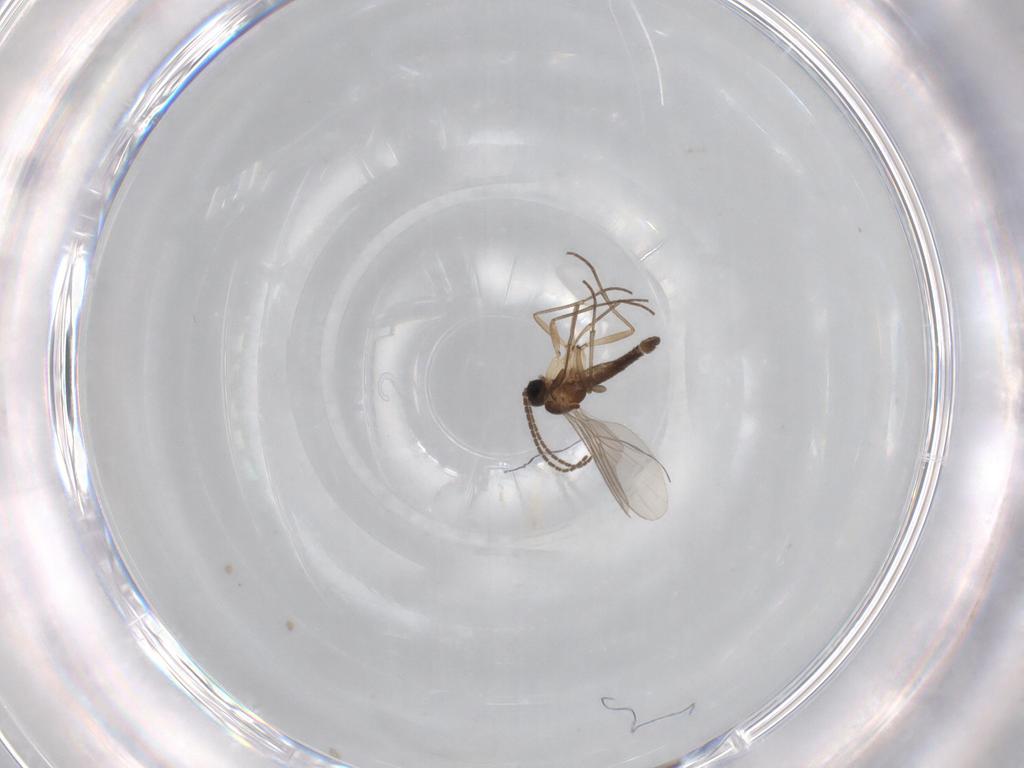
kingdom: Animalia
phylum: Arthropoda
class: Insecta
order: Diptera
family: Sciaridae
